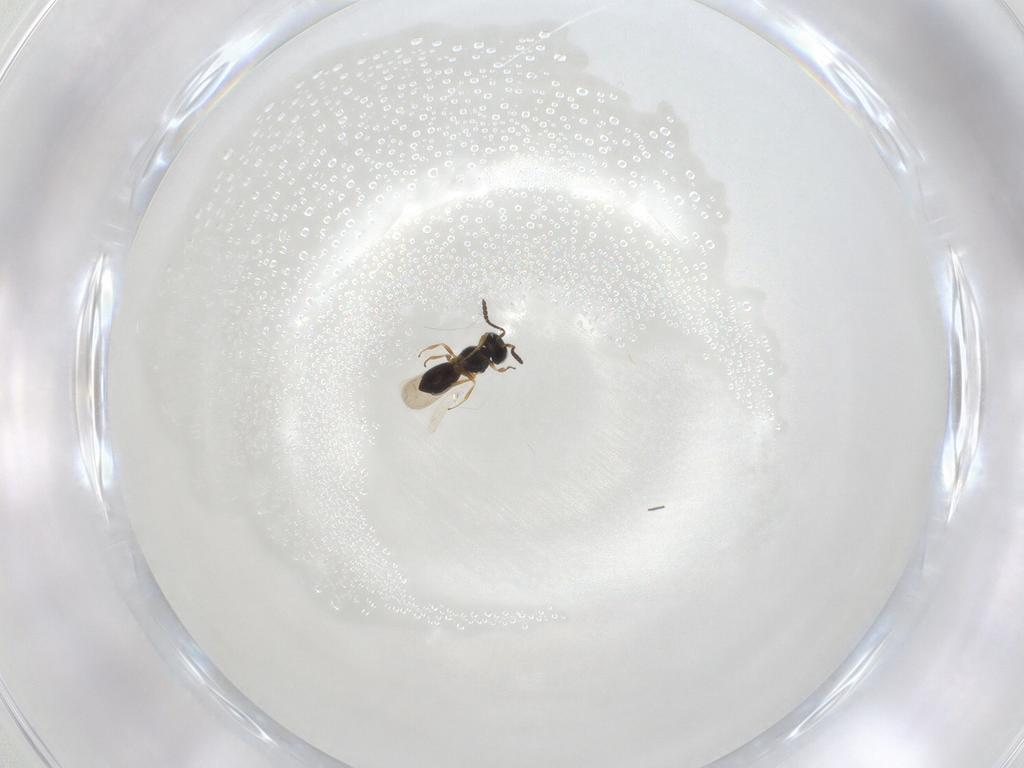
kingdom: Animalia
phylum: Arthropoda
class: Insecta
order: Hymenoptera
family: Scelionidae
